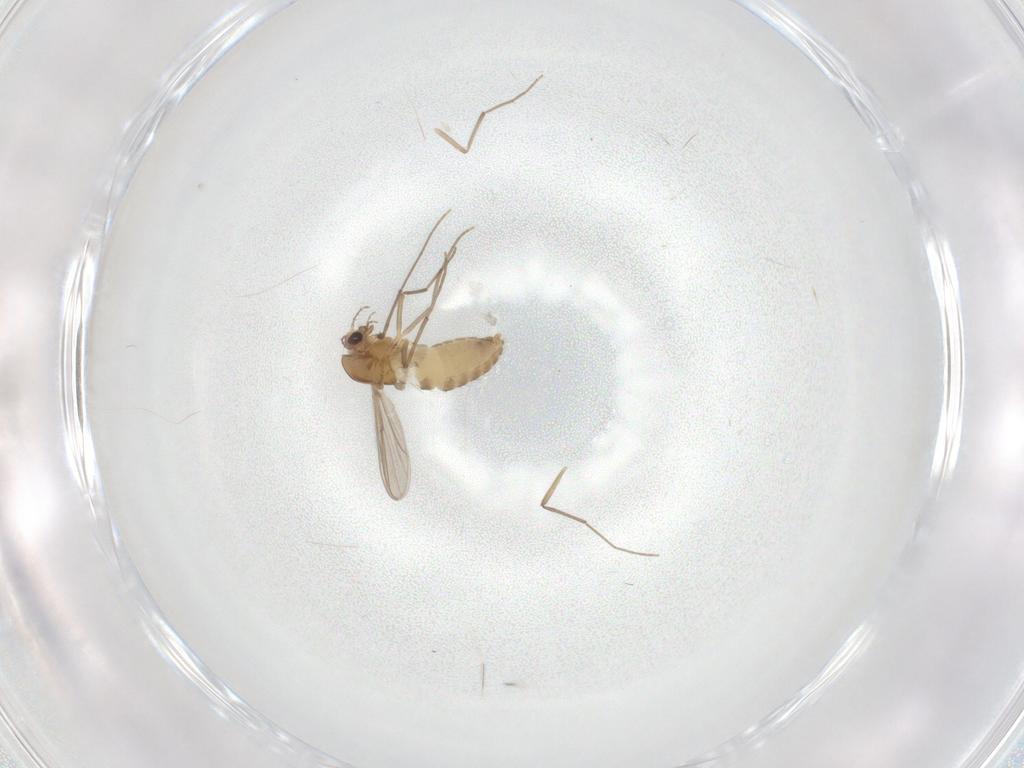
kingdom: Animalia
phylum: Arthropoda
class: Insecta
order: Diptera
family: Chironomidae
